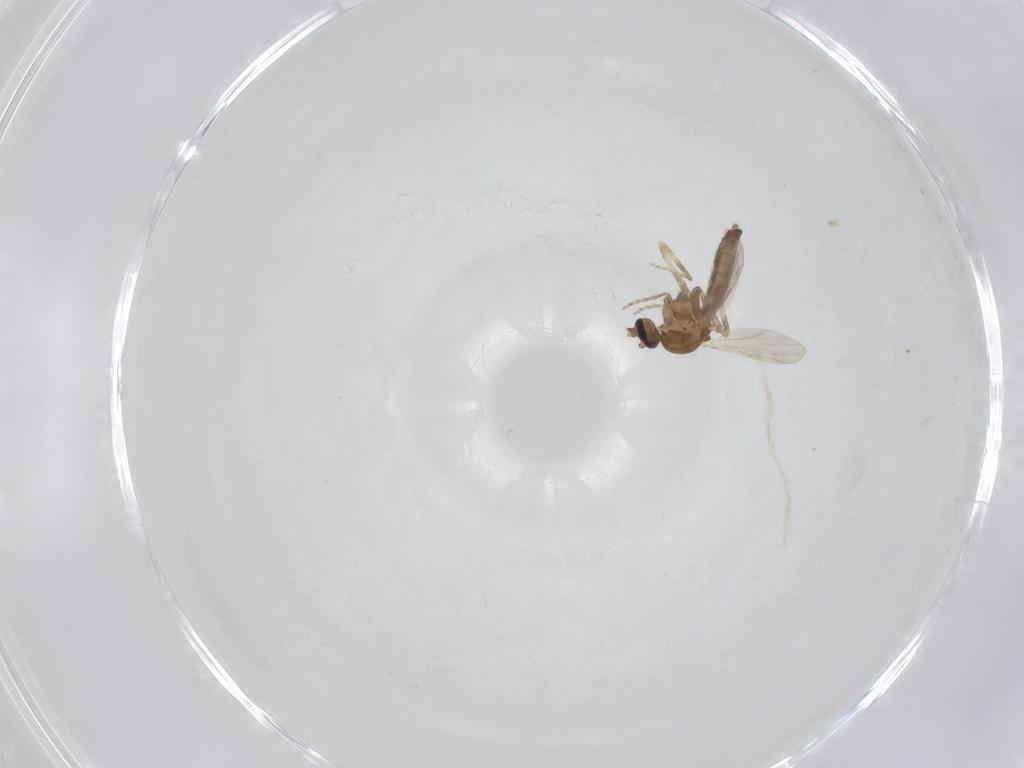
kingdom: Animalia
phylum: Arthropoda
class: Insecta
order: Diptera
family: Ceratopogonidae
